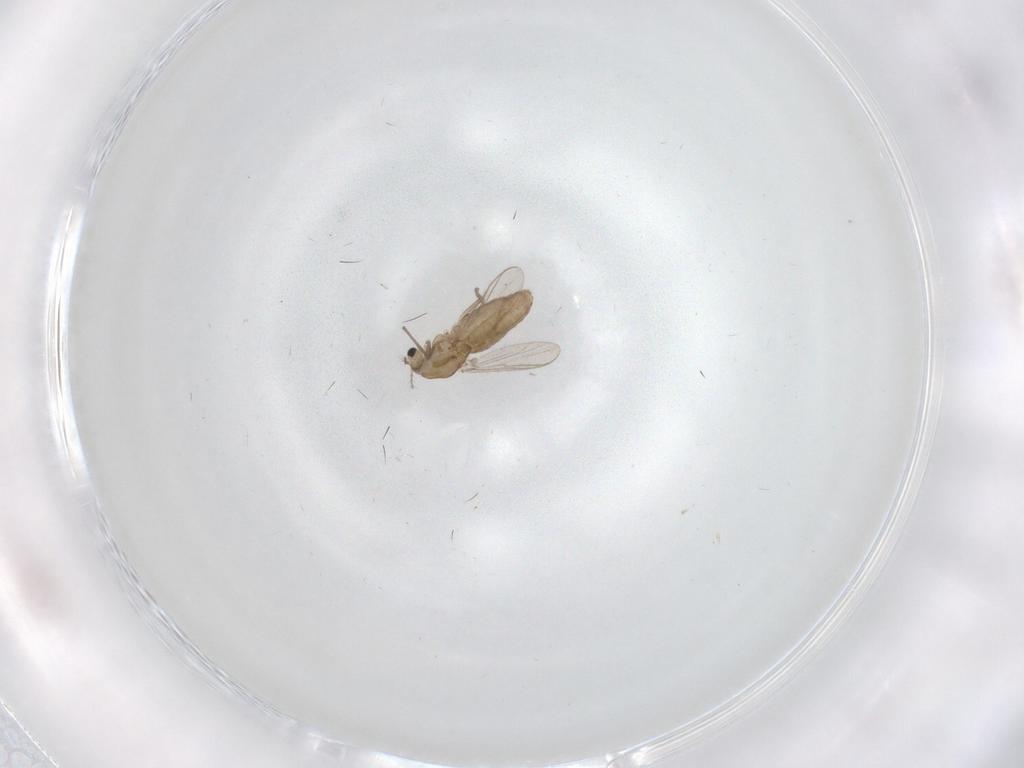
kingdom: Animalia
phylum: Arthropoda
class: Insecta
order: Diptera
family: Chironomidae
